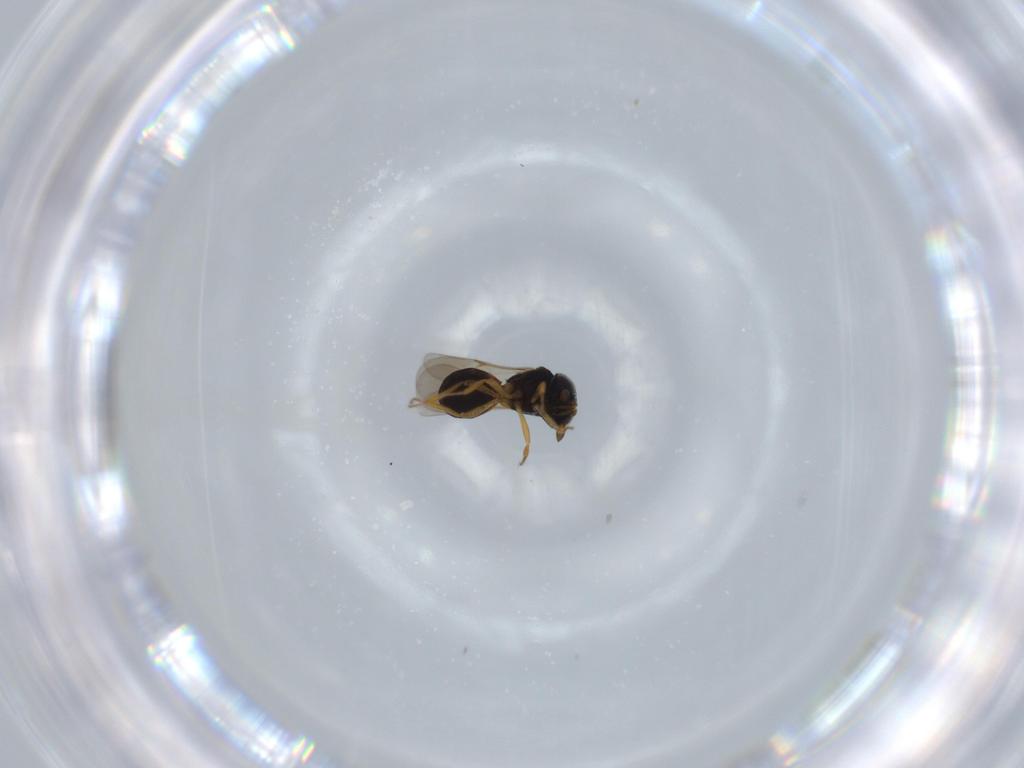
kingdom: Animalia
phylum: Arthropoda
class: Insecta
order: Hymenoptera
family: Scelionidae
